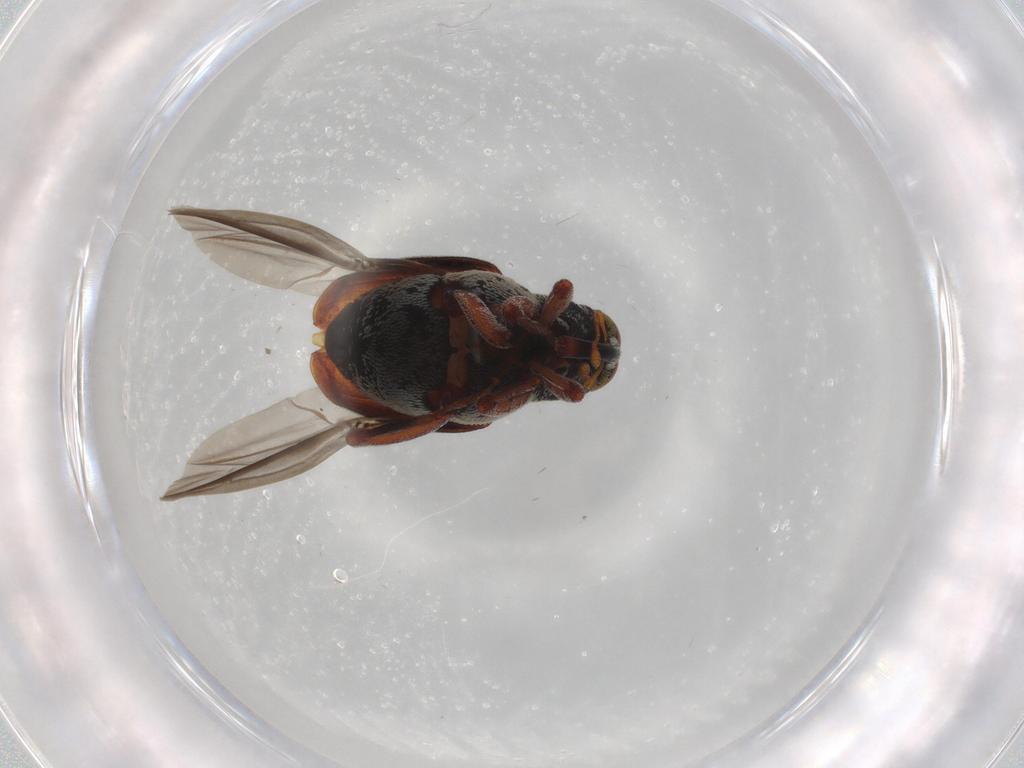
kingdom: Animalia
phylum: Arthropoda
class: Insecta
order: Coleoptera
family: Curculionidae
